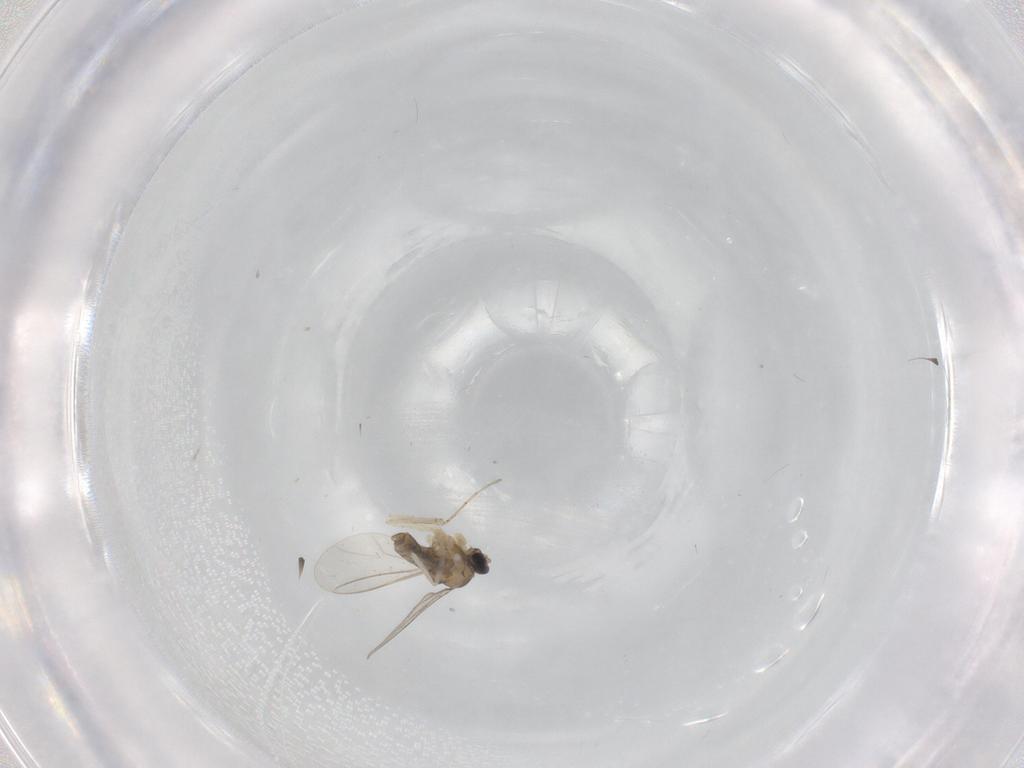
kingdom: Animalia
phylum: Arthropoda
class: Insecta
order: Diptera
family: Cecidomyiidae
